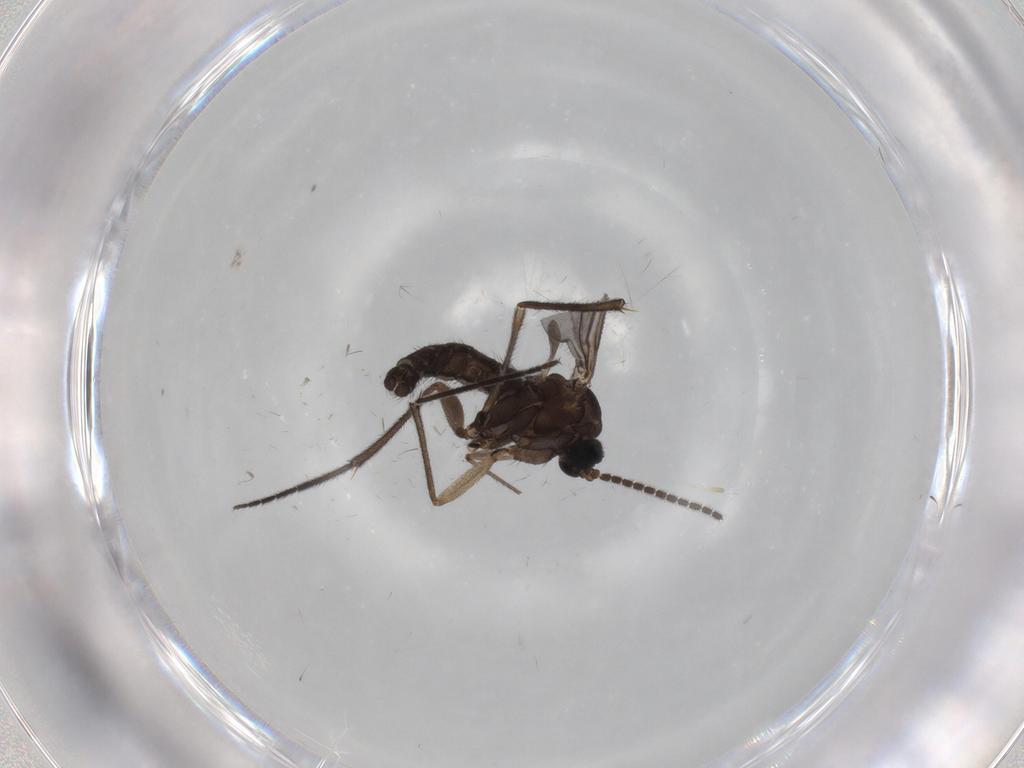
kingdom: Animalia
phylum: Arthropoda
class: Insecta
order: Diptera
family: Sciaridae
